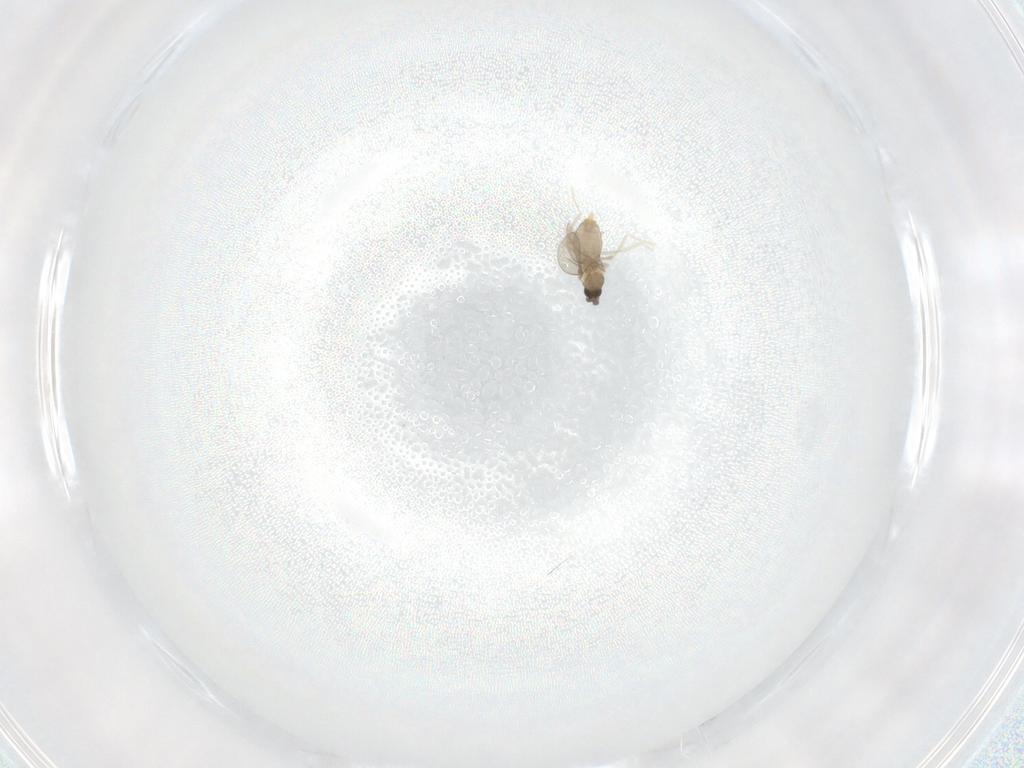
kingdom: Animalia
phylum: Arthropoda
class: Insecta
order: Diptera
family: Cecidomyiidae
